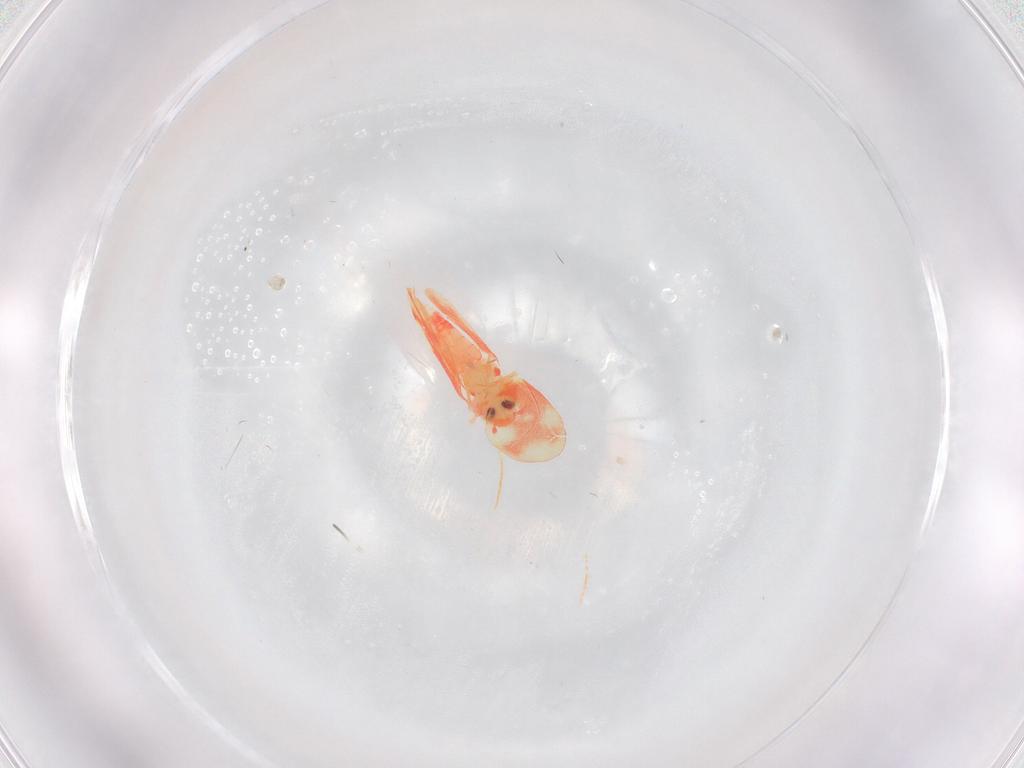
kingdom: Animalia
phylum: Arthropoda
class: Insecta
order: Hemiptera
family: Aleyrodidae
